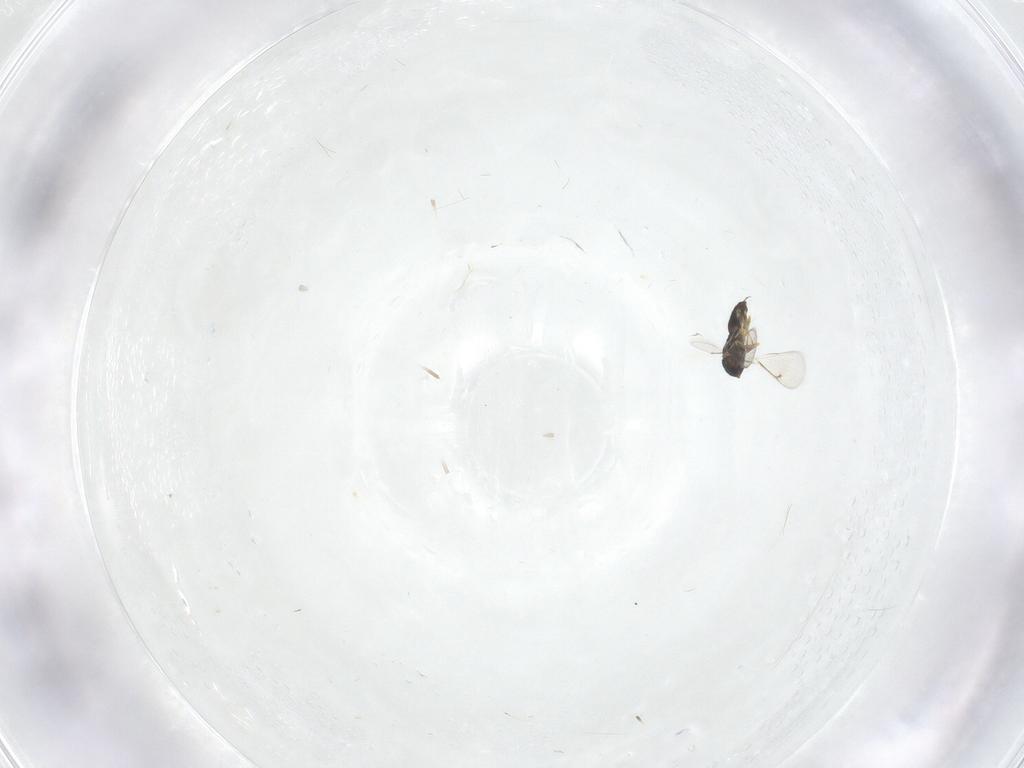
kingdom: Animalia
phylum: Arthropoda
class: Insecta
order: Hymenoptera
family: Eulophidae
